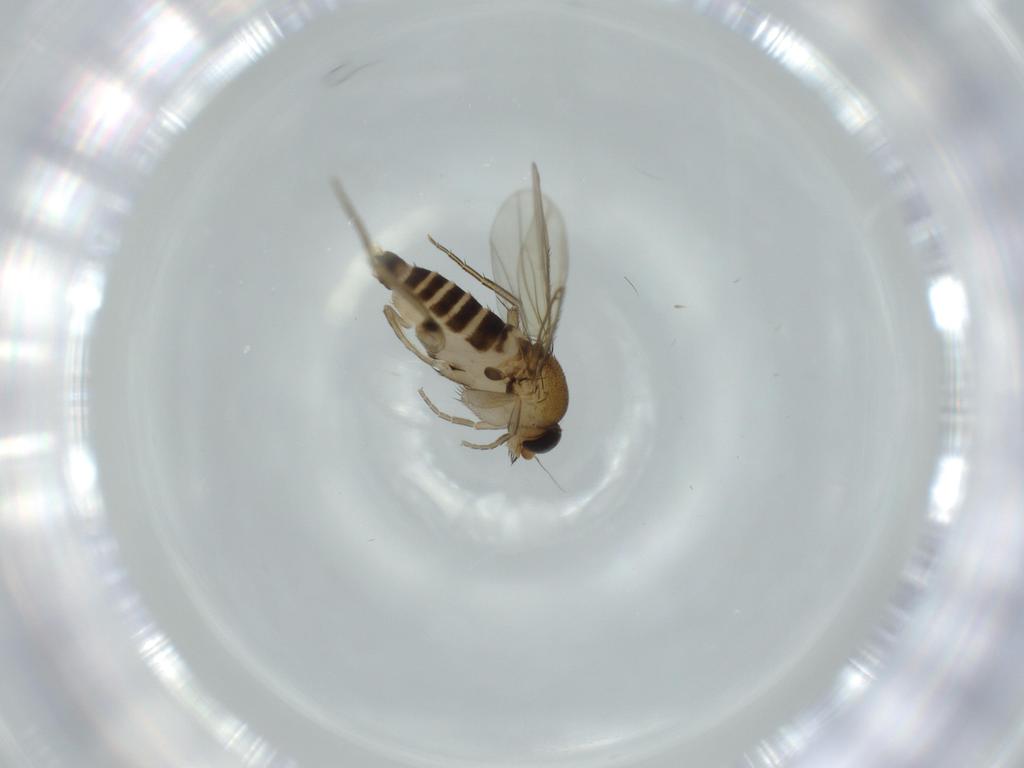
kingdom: Animalia
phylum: Arthropoda
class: Insecta
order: Diptera
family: Phoridae
